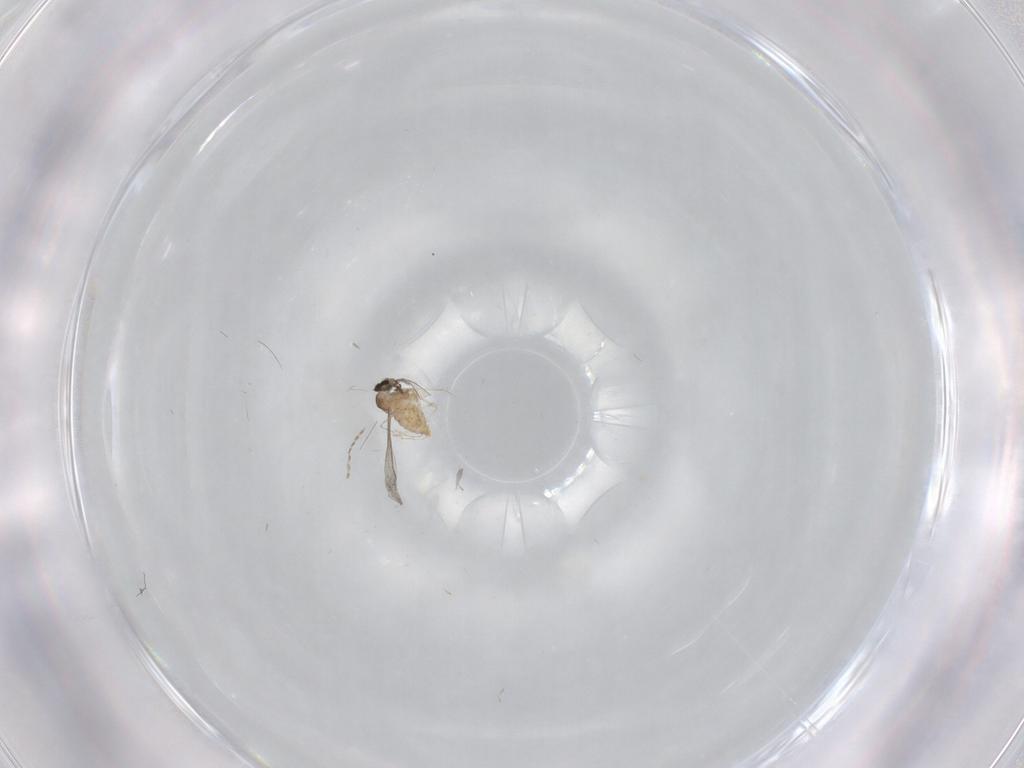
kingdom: Animalia
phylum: Arthropoda
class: Insecta
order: Diptera
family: Cecidomyiidae
